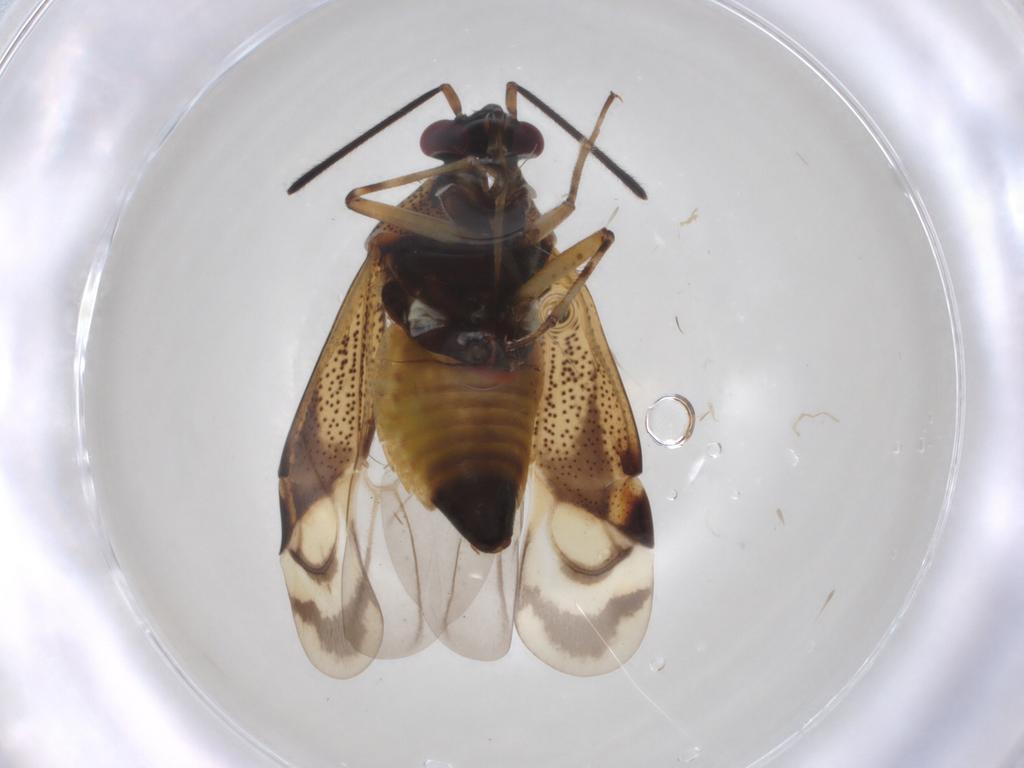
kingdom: Animalia
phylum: Arthropoda
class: Insecta
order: Hemiptera
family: Miridae
